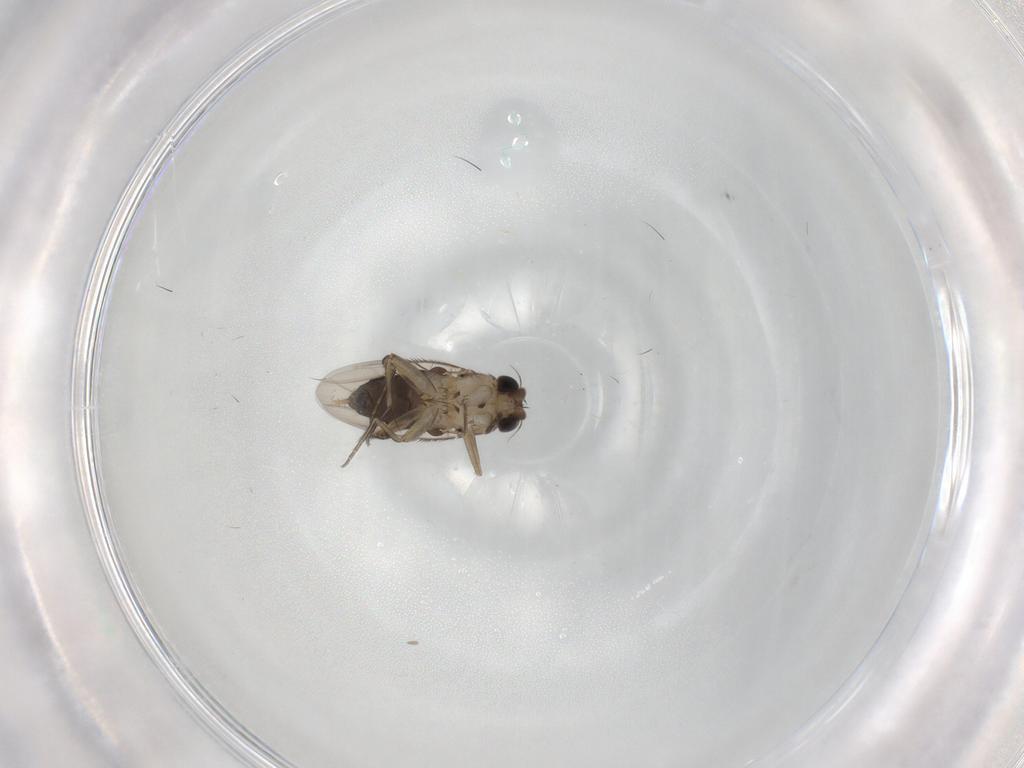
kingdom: Animalia
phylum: Arthropoda
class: Insecta
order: Diptera
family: Phoridae
